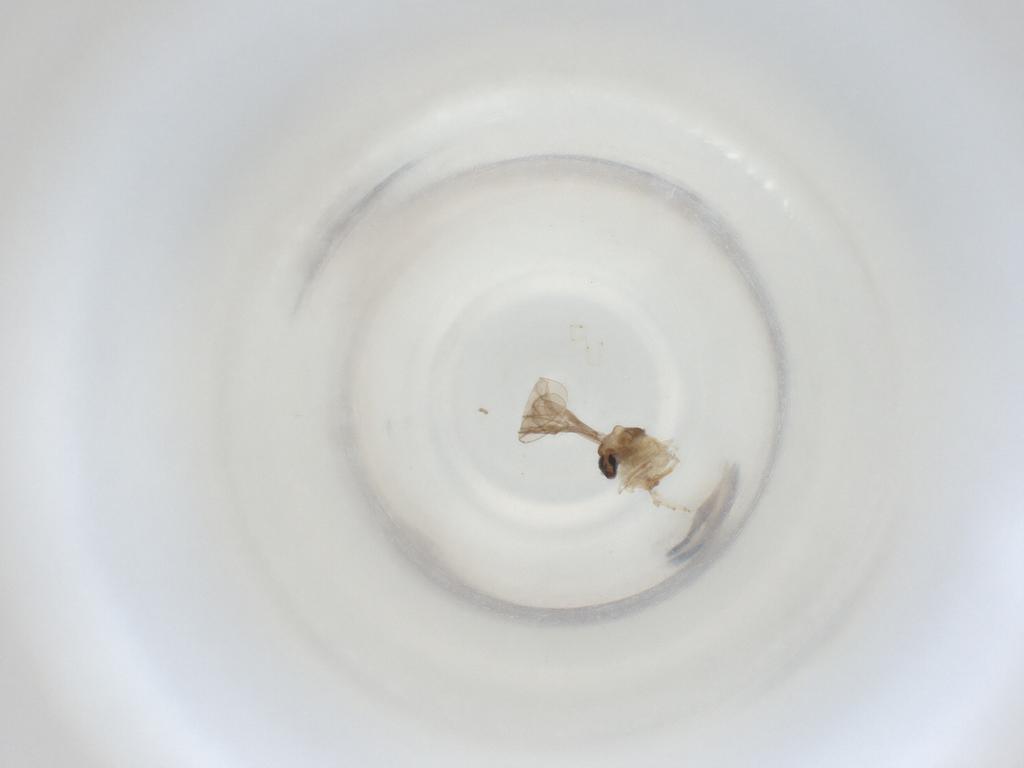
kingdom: Animalia
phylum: Arthropoda
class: Insecta
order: Diptera
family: Cecidomyiidae
